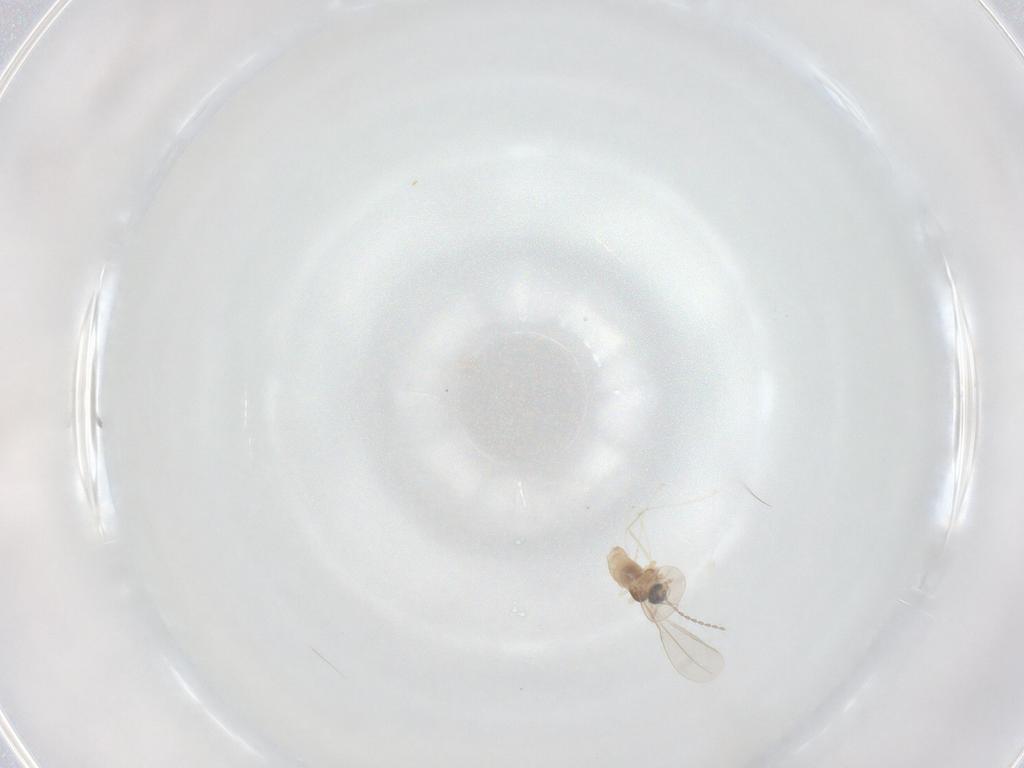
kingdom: Animalia
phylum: Arthropoda
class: Insecta
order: Diptera
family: Cecidomyiidae
